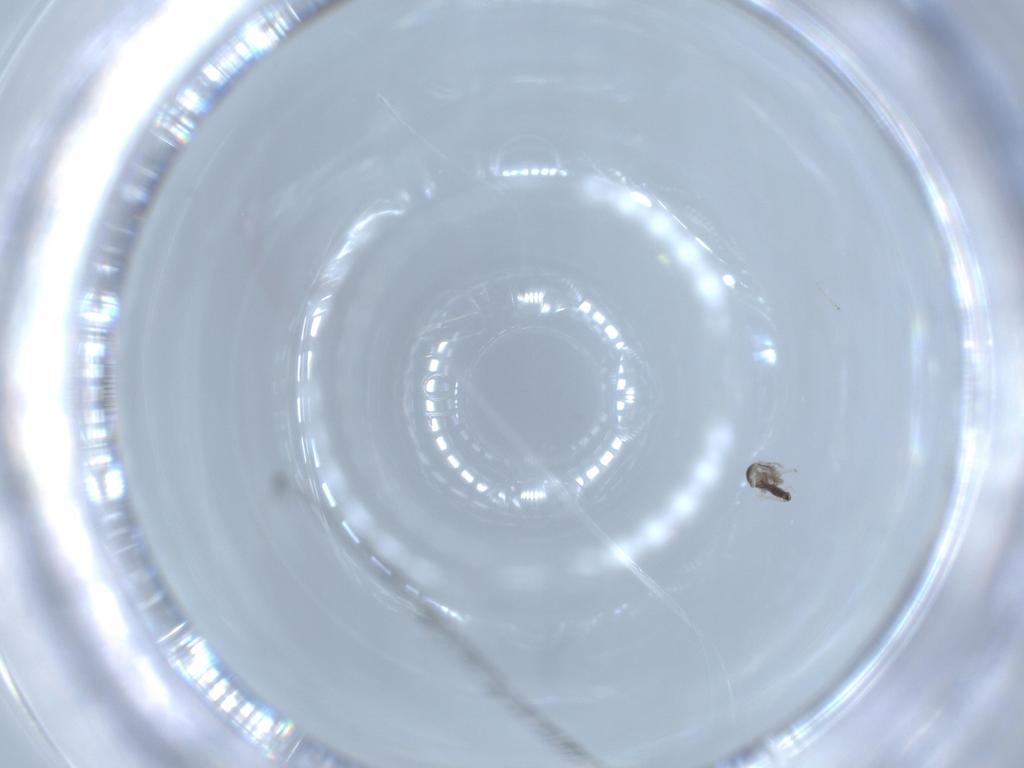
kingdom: Animalia
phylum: Arthropoda
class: Insecta
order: Diptera
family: Cecidomyiidae
